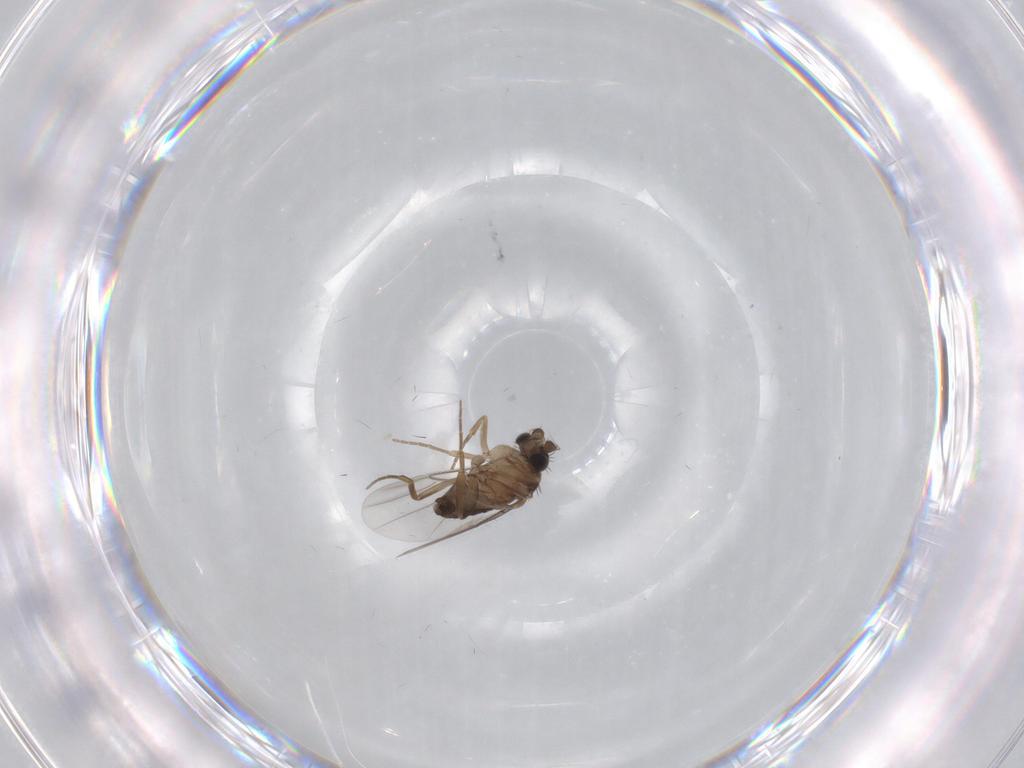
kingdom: Animalia
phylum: Arthropoda
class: Insecta
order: Diptera
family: Phoridae
